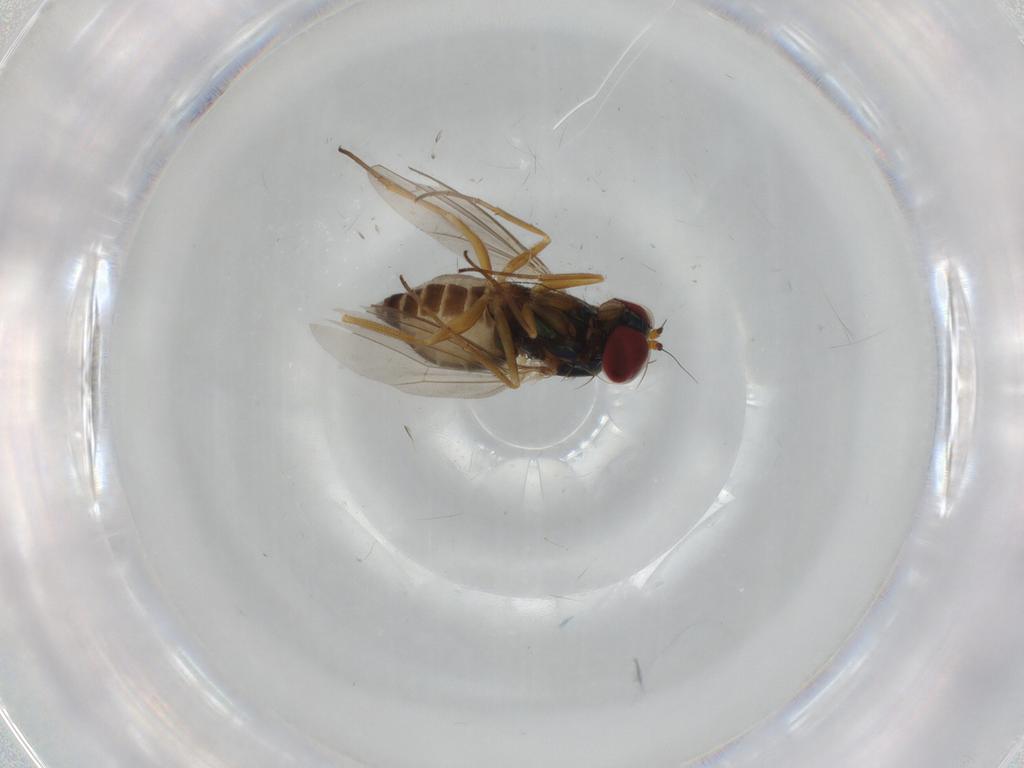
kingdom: Animalia
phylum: Arthropoda
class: Insecta
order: Diptera
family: Dolichopodidae
